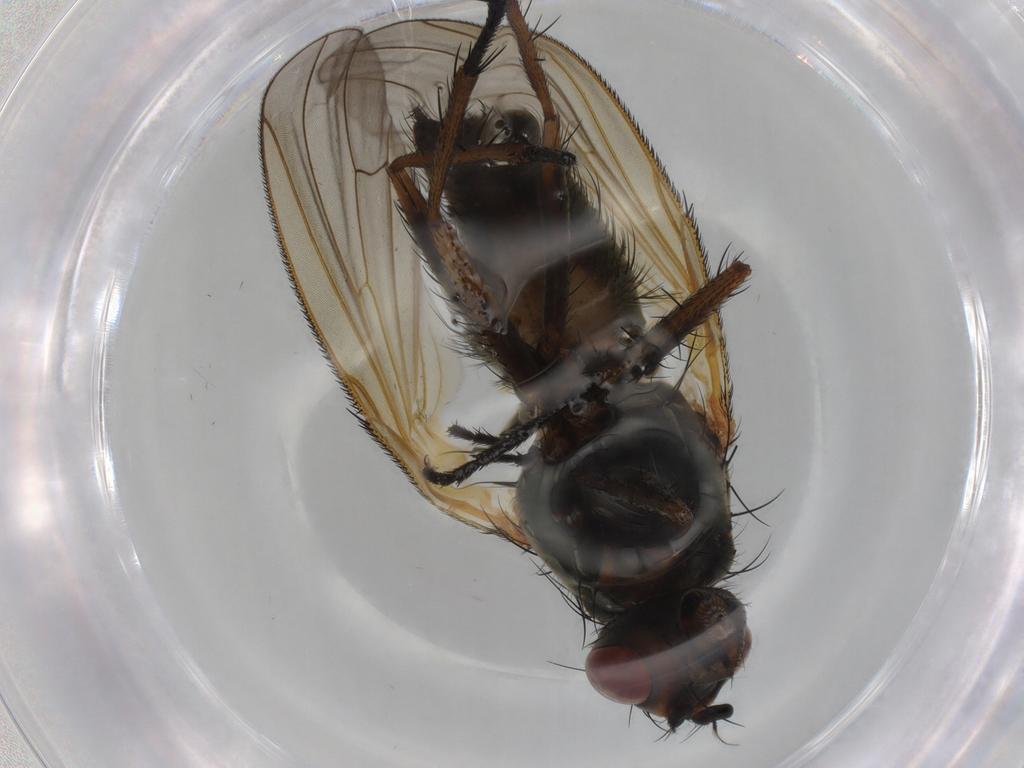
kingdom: Animalia
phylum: Arthropoda
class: Insecta
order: Diptera
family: Anthomyiidae
